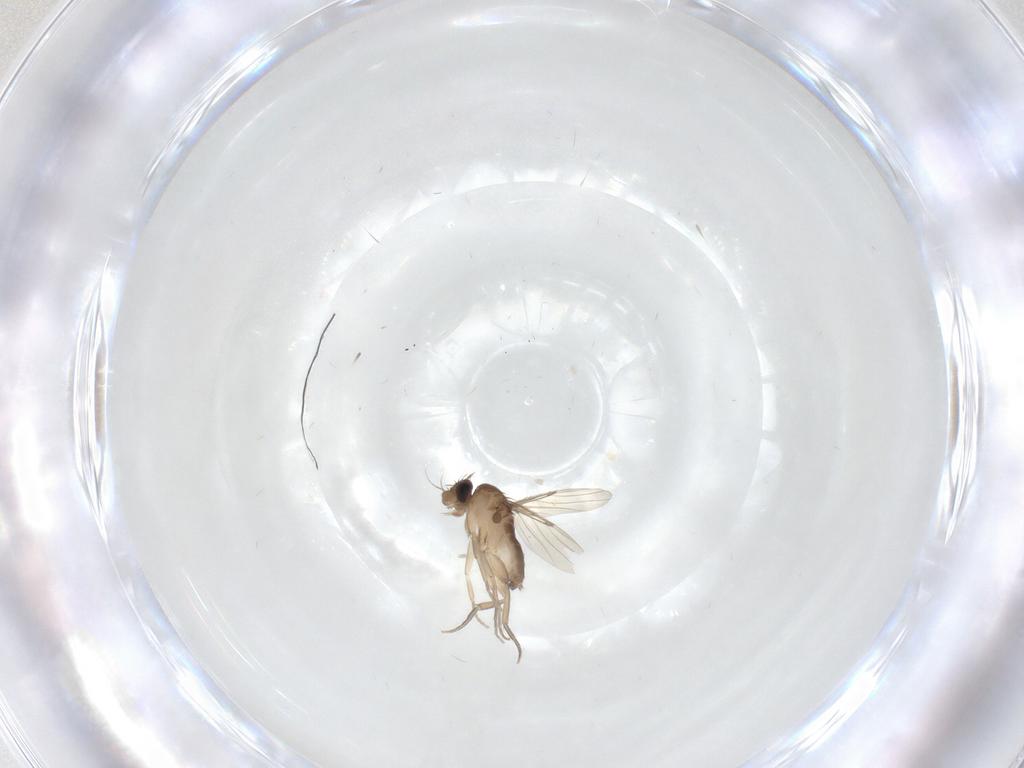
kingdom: Animalia
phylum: Arthropoda
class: Insecta
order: Diptera
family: Phoridae
